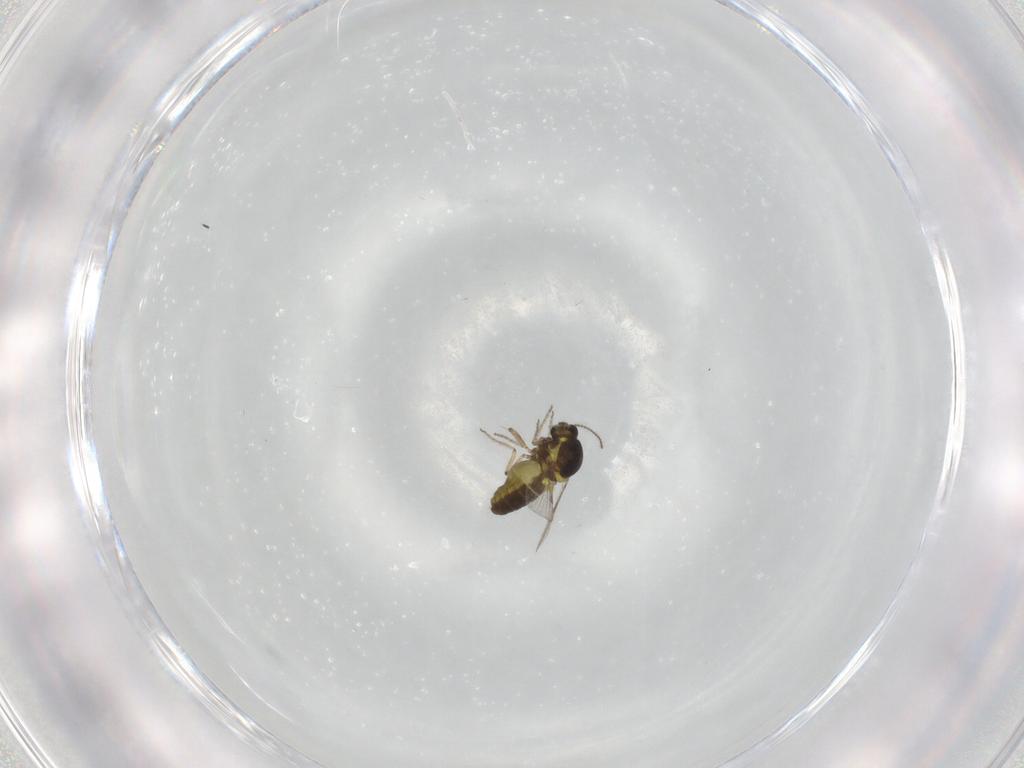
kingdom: Animalia
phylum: Arthropoda
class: Insecta
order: Diptera
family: Ceratopogonidae
